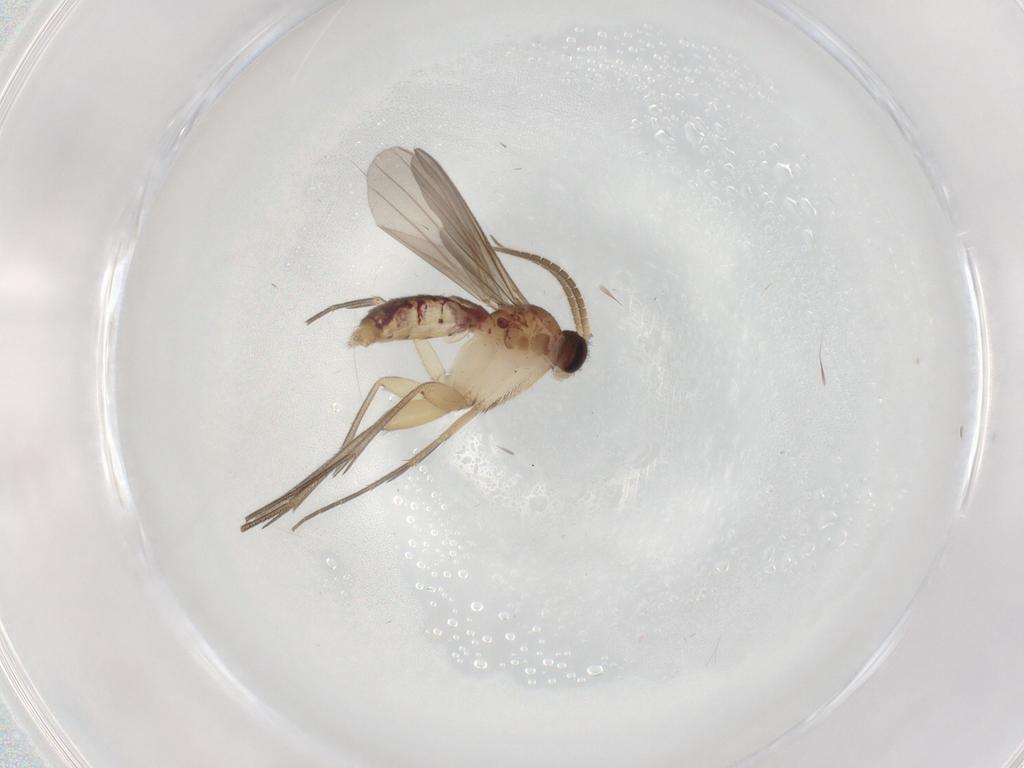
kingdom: Animalia
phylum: Arthropoda
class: Insecta
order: Diptera
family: Mycetophilidae
